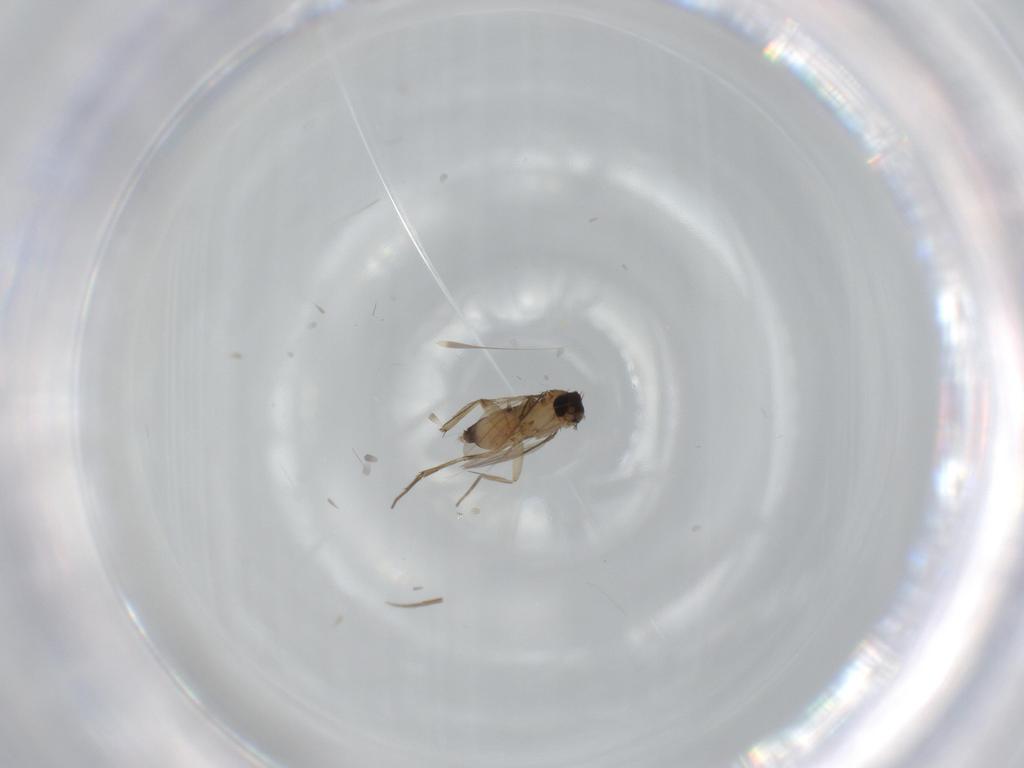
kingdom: Animalia
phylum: Arthropoda
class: Insecta
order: Diptera
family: Phoridae
